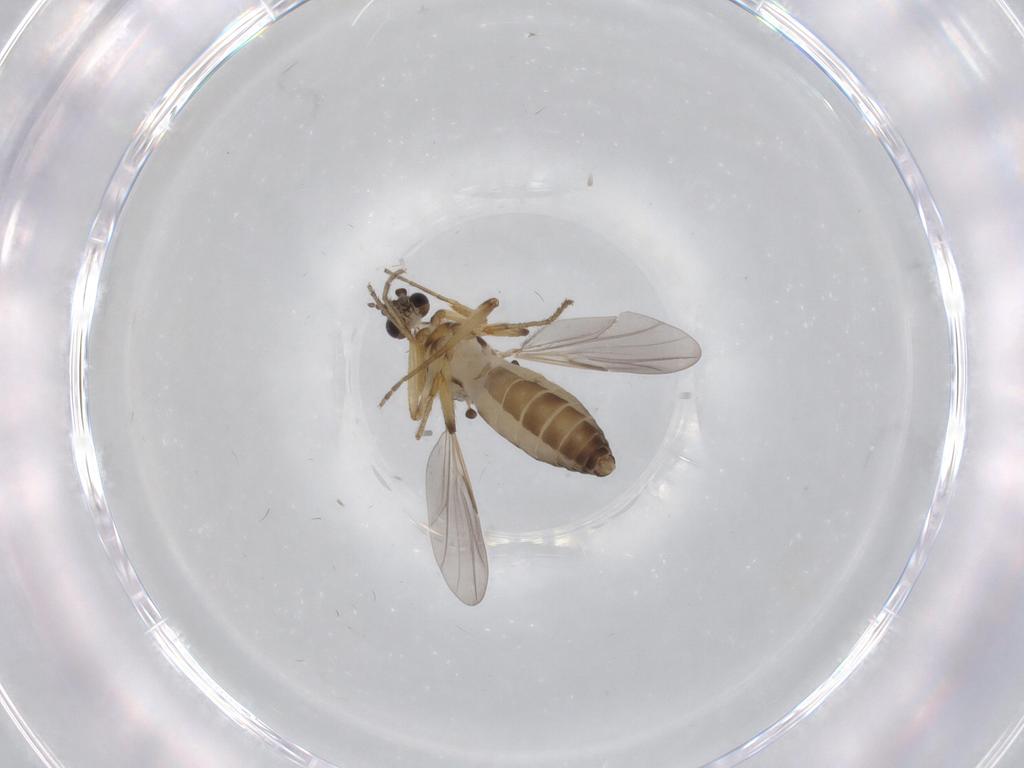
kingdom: Animalia
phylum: Arthropoda
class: Insecta
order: Diptera
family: Ceratopogonidae
